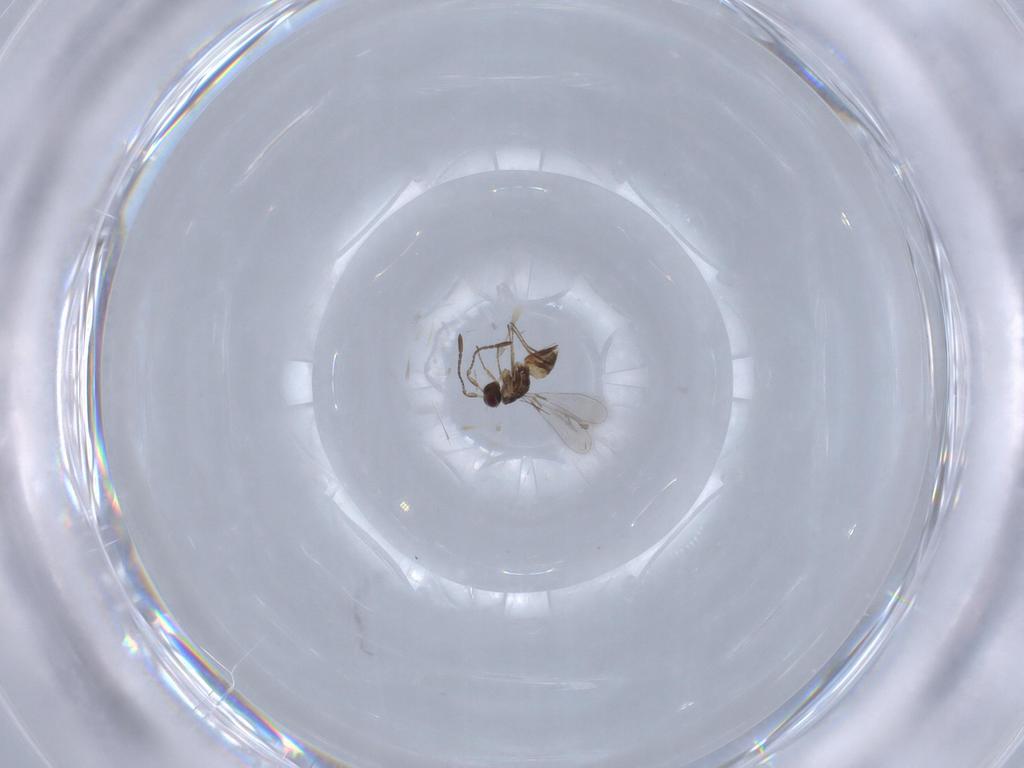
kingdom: Animalia
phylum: Arthropoda
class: Insecta
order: Hymenoptera
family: Mymaridae
